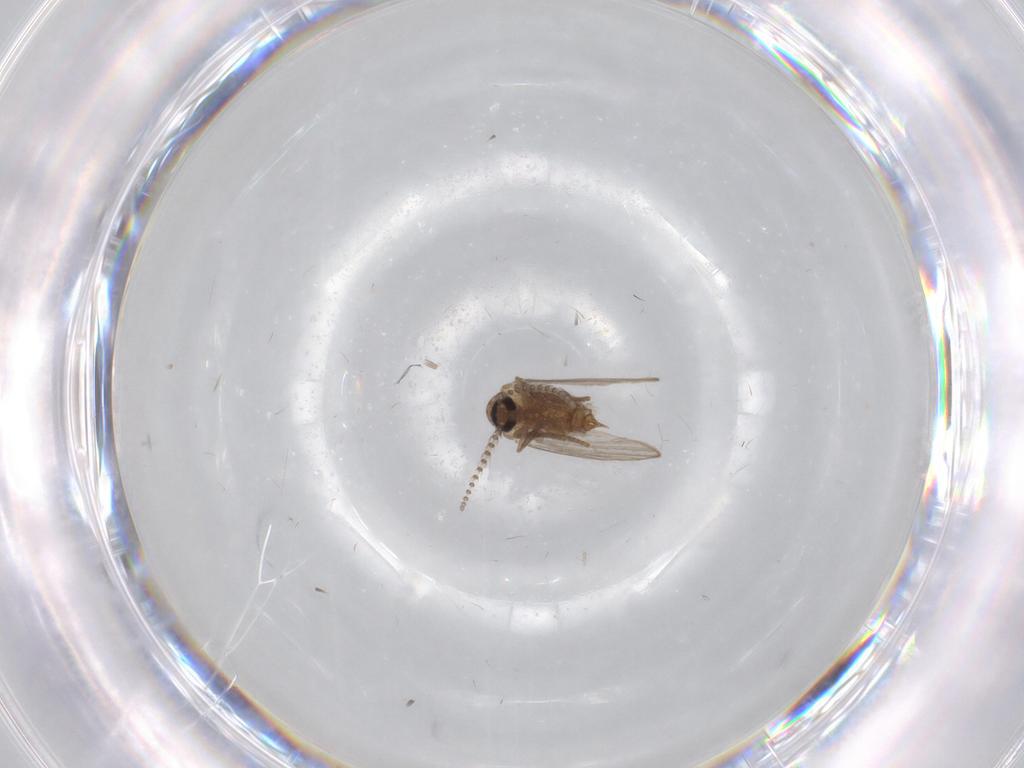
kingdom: Animalia
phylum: Arthropoda
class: Insecta
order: Diptera
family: Psychodidae
